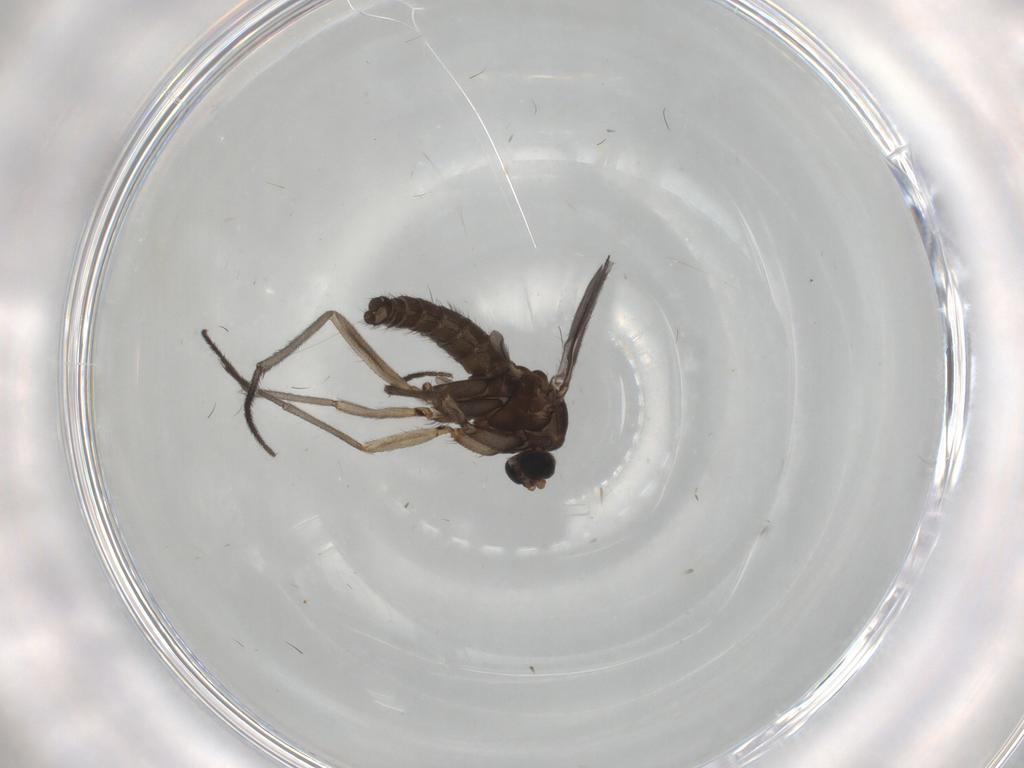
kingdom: Animalia
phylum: Arthropoda
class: Insecta
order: Diptera
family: Sciaridae
